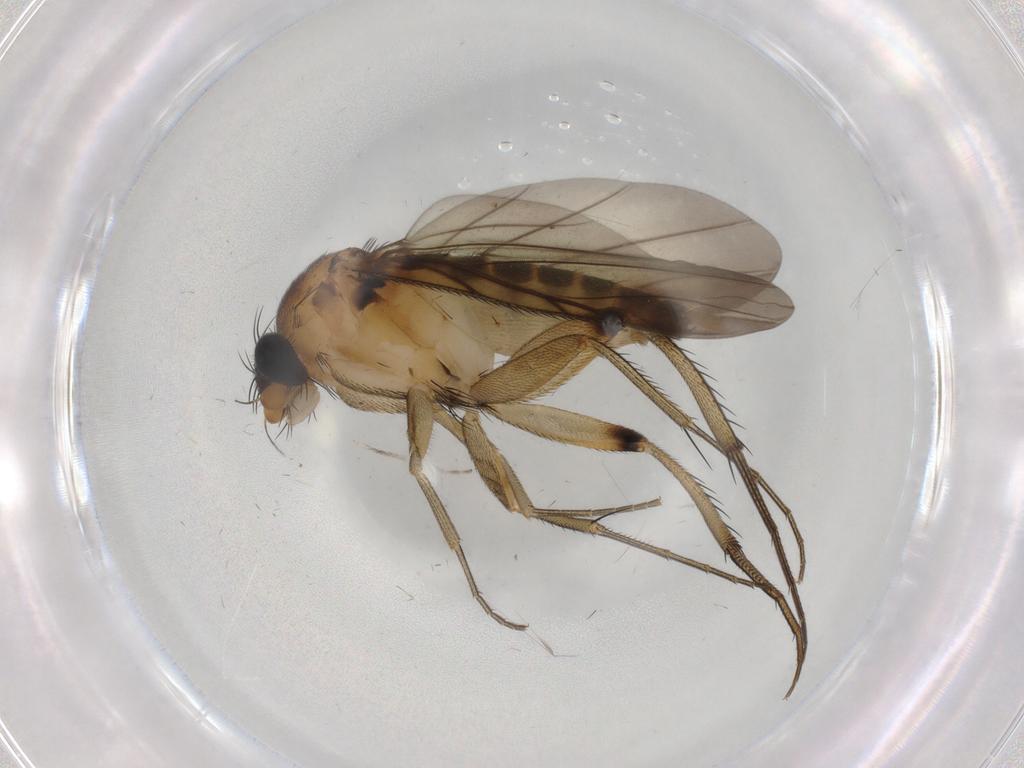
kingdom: Animalia
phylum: Arthropoda
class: Insecta
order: Diptera
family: Phoridae
